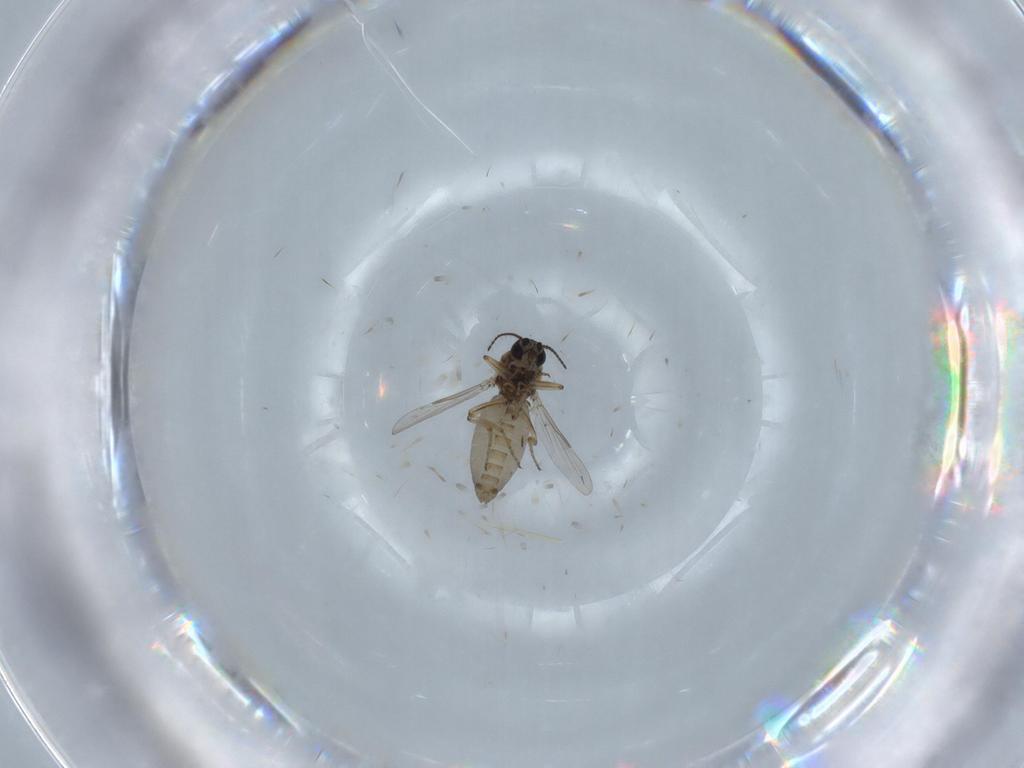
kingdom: Animalia
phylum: Arthropoda
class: Insecta
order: Diptera
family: Ceratopogonidae
